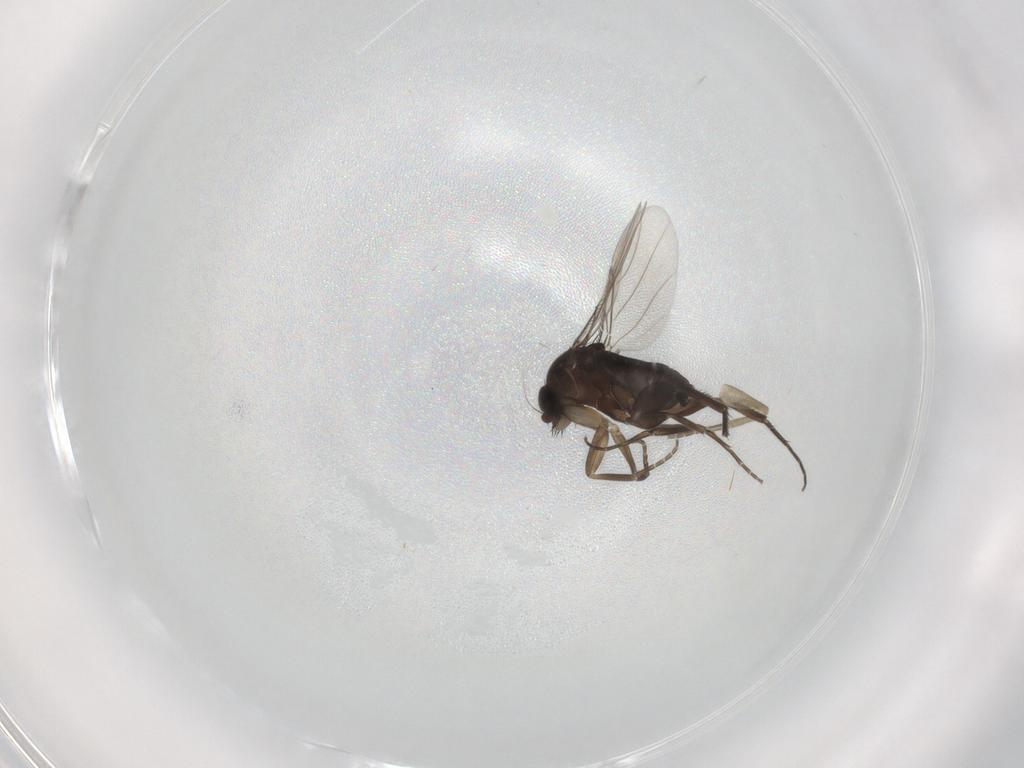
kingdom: Animalia
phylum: Arthropoda
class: Insecta
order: Diptera
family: Phoridae
